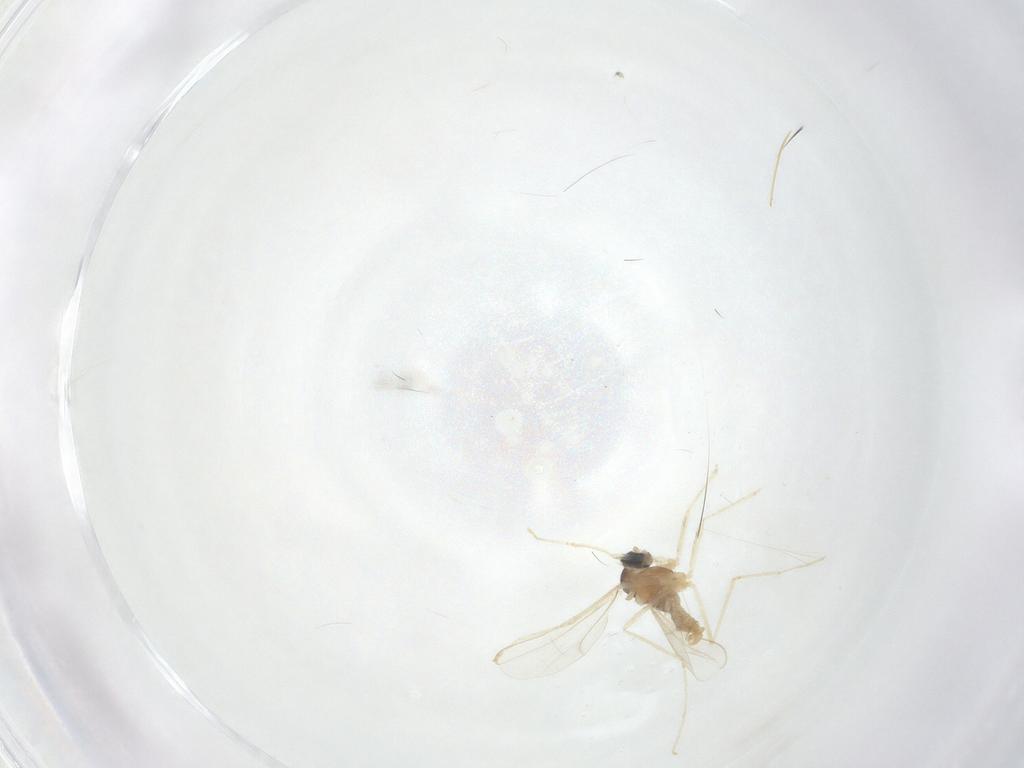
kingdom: Animalia
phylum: Arthropoda
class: Insecta
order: Diptera
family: Cecidomyiidae
